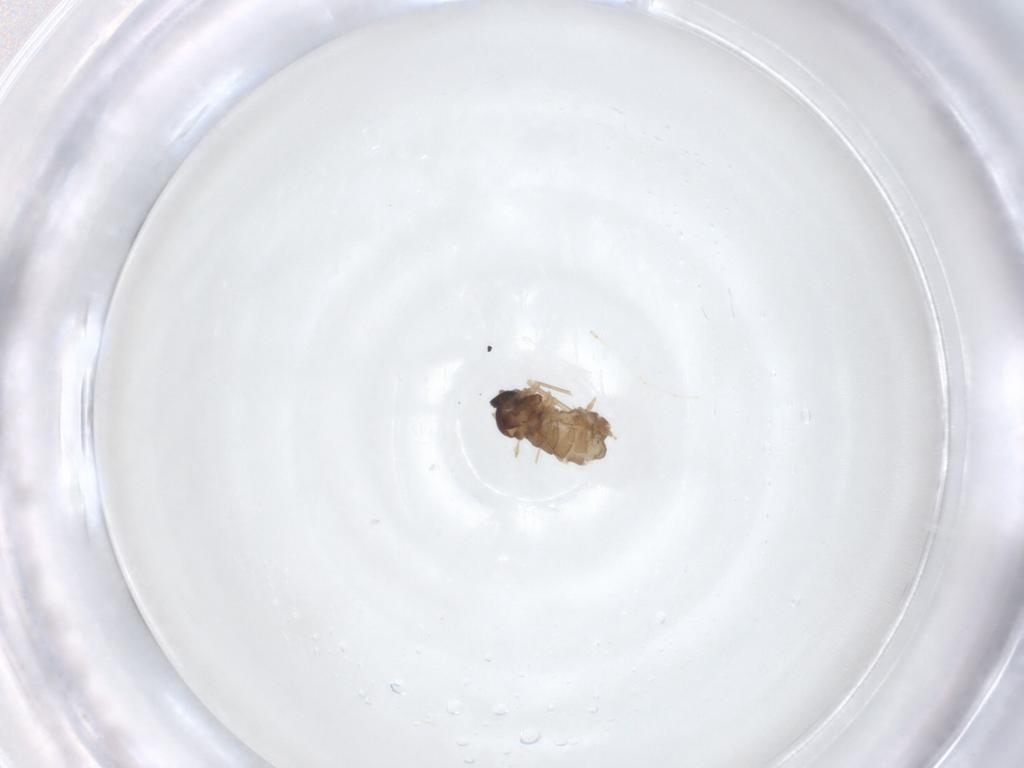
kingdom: Animalia
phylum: Arthropoda
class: Insecta
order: Diptera
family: Cecidomyiidae
